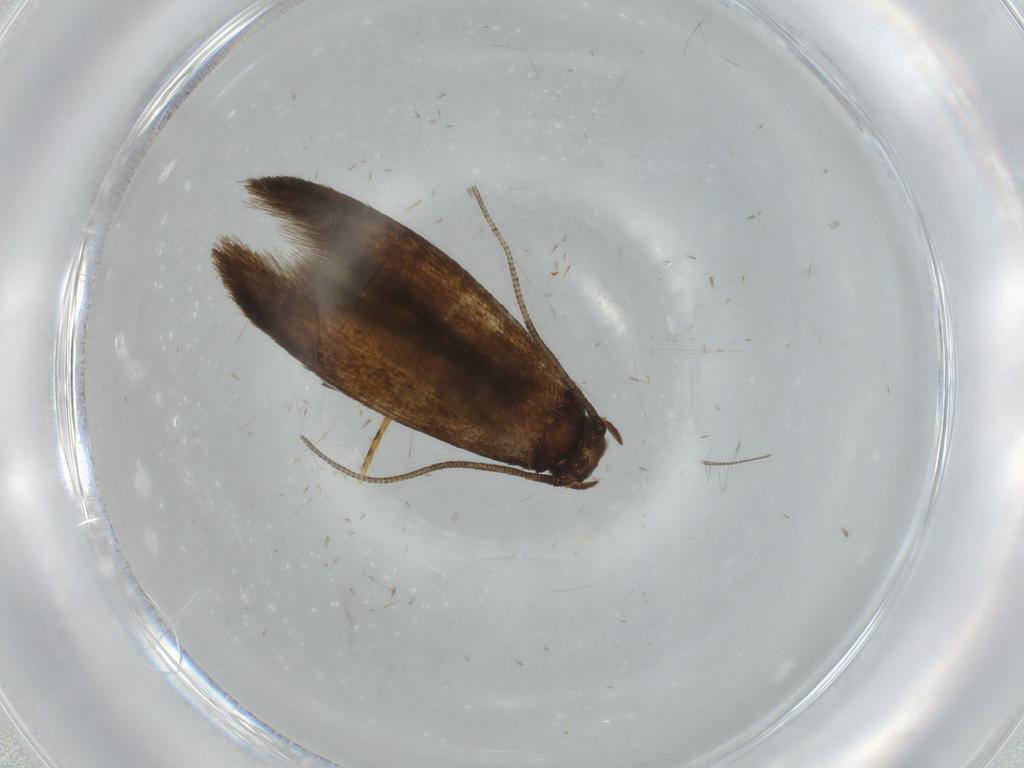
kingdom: Animalia
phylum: Arthropoda
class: Insecta
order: Lepidoptera
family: Tineidae
